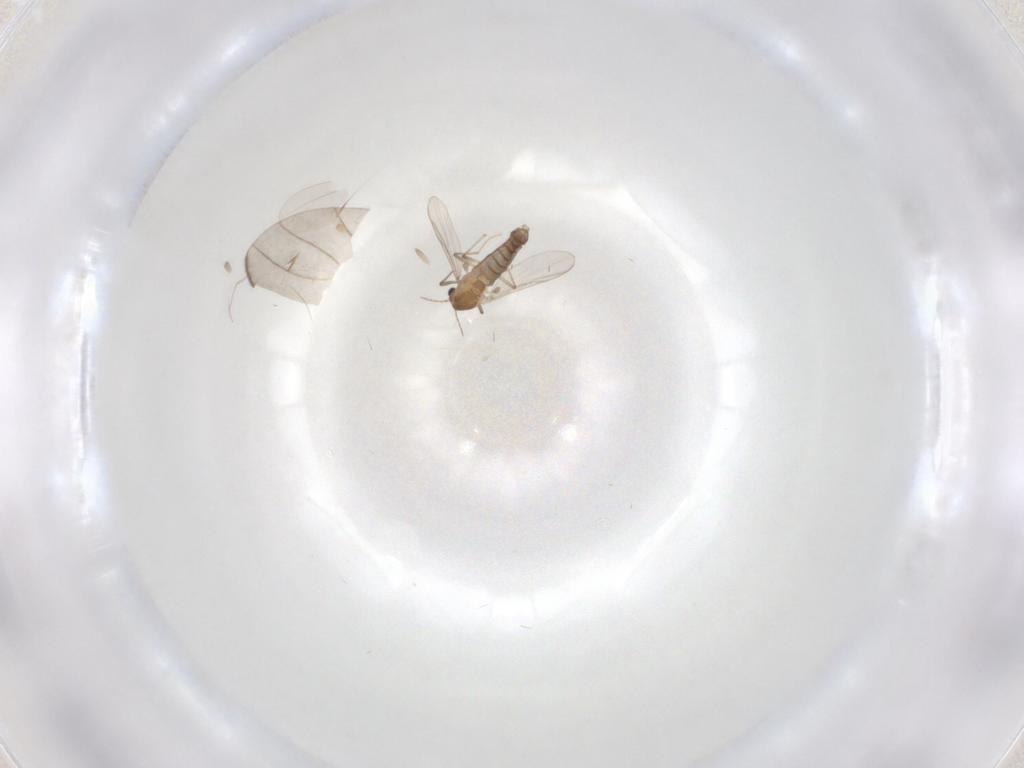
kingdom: Animalia
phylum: Arthropoda
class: Insecta
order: Diptera
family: Sciaridae
